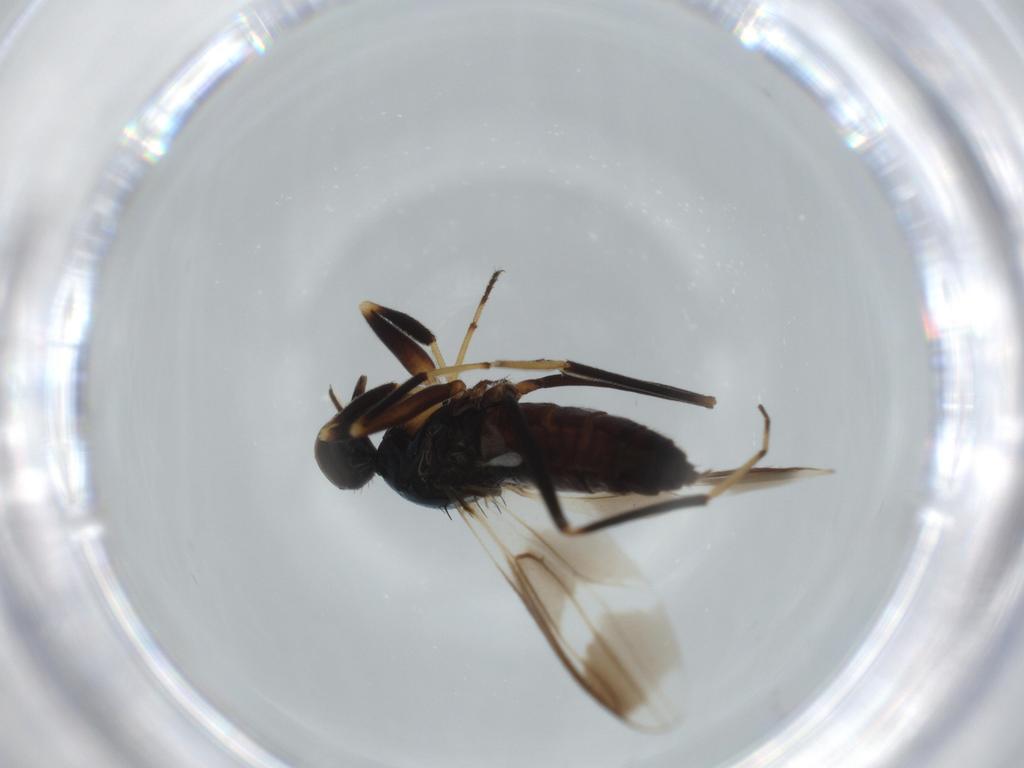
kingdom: Animalia
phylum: Arthropoda
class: Insecta
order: Diptera
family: Hybotidae
